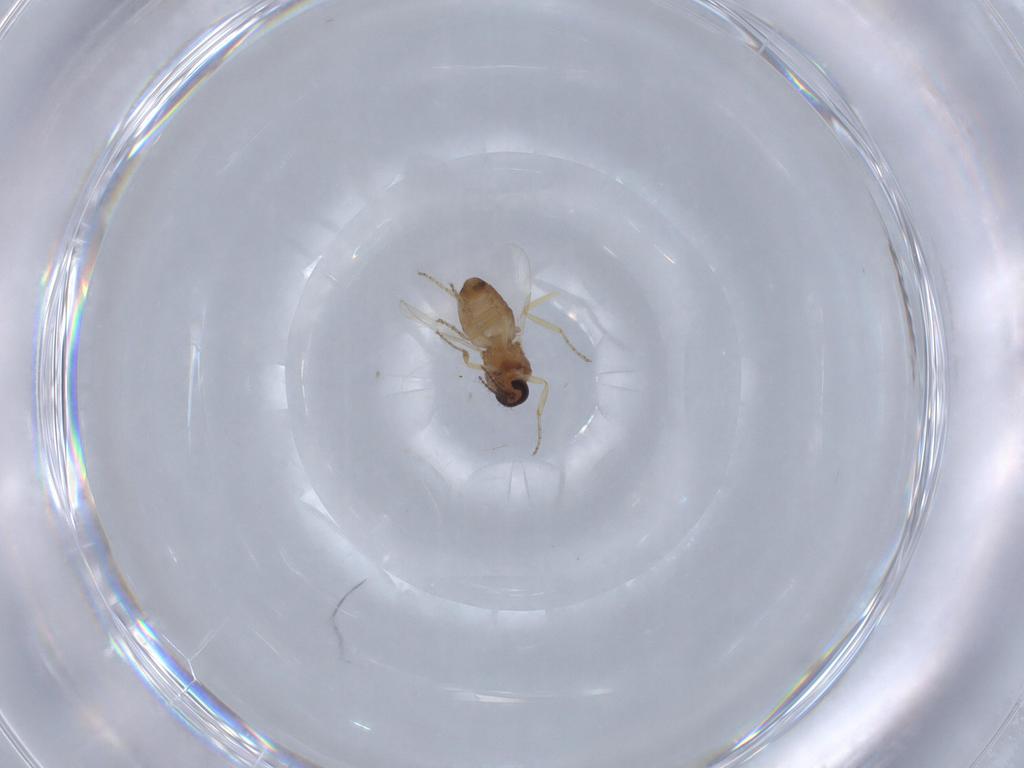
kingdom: Animalia
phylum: Arthropoda
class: Insecta
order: Diptera
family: Ceratopogonidae
